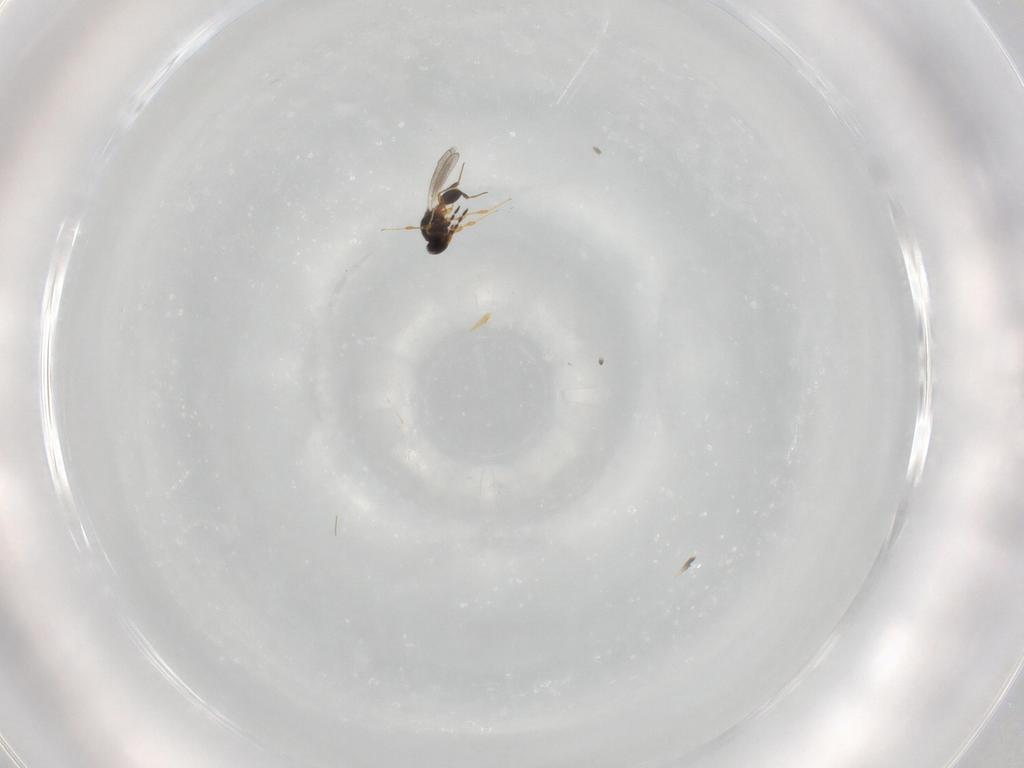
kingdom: Animalia
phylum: Arthropoda
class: Insecta
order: Hymenoptera
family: Platygastridae
